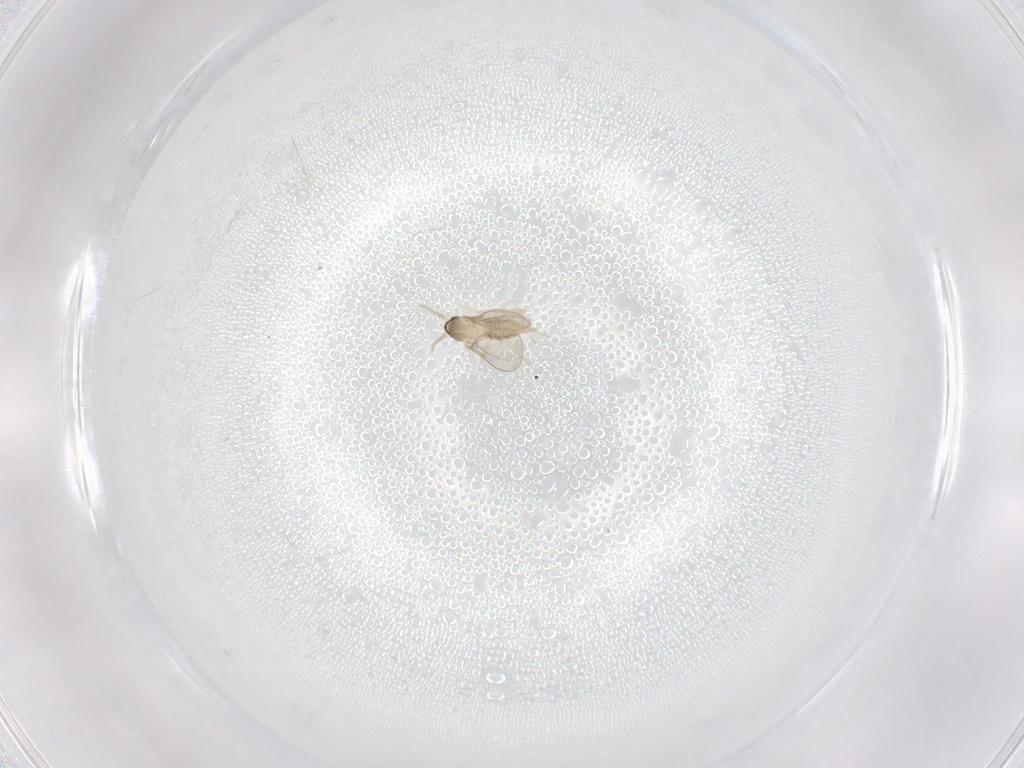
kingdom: Animalia
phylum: Arthropoda
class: Insecta
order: Diptera
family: Cecidomyiidae
